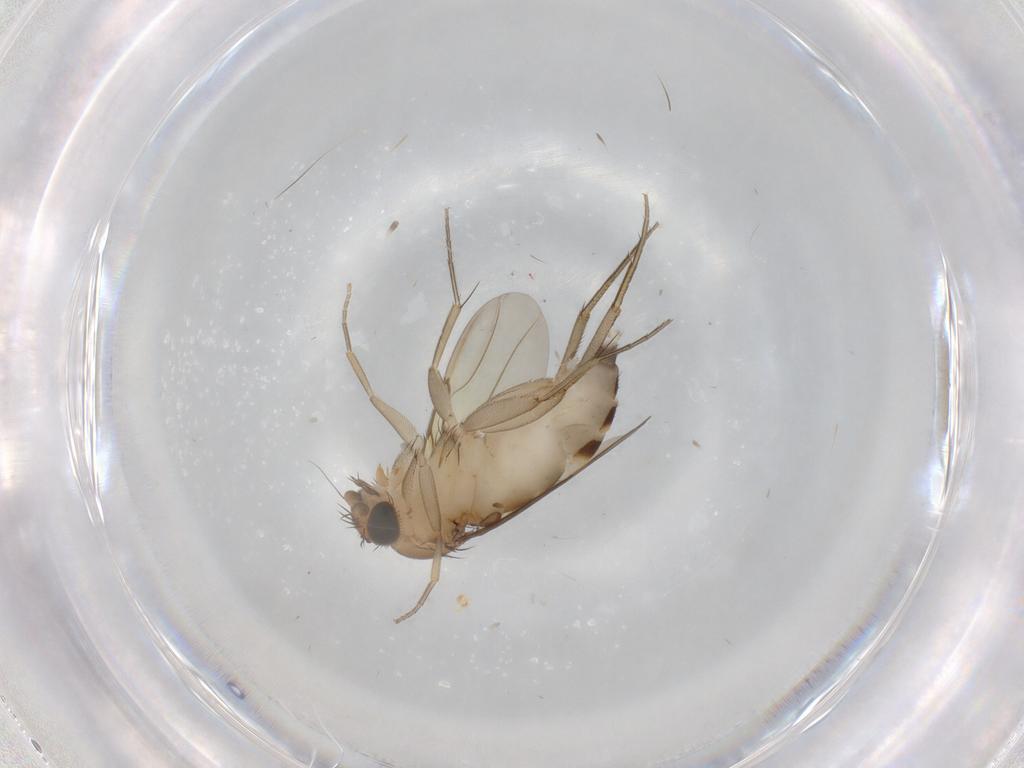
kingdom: Animalia
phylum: Arthropoda
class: Insecta
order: Diptera
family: Phoridae
